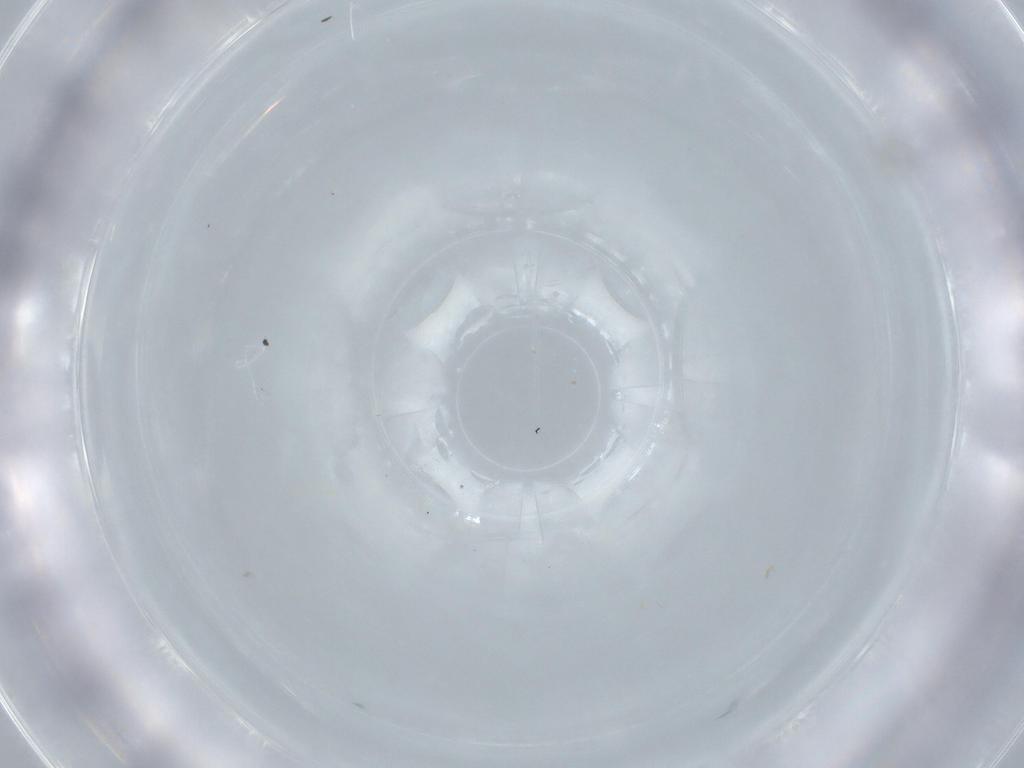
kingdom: Animalia
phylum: Arthropoda
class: Insecta
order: Hymenoptera
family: Mymaridae
